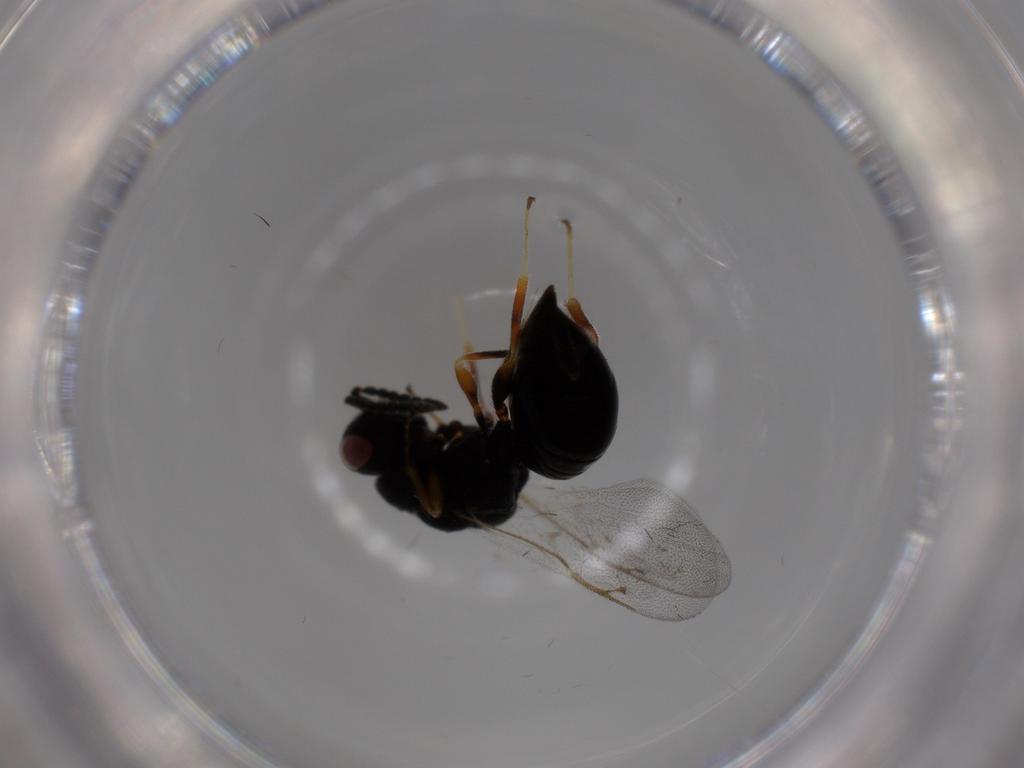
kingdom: Animalia
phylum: Arthropoda
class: Insecta
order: Hymenoptera
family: Eurytomidae
